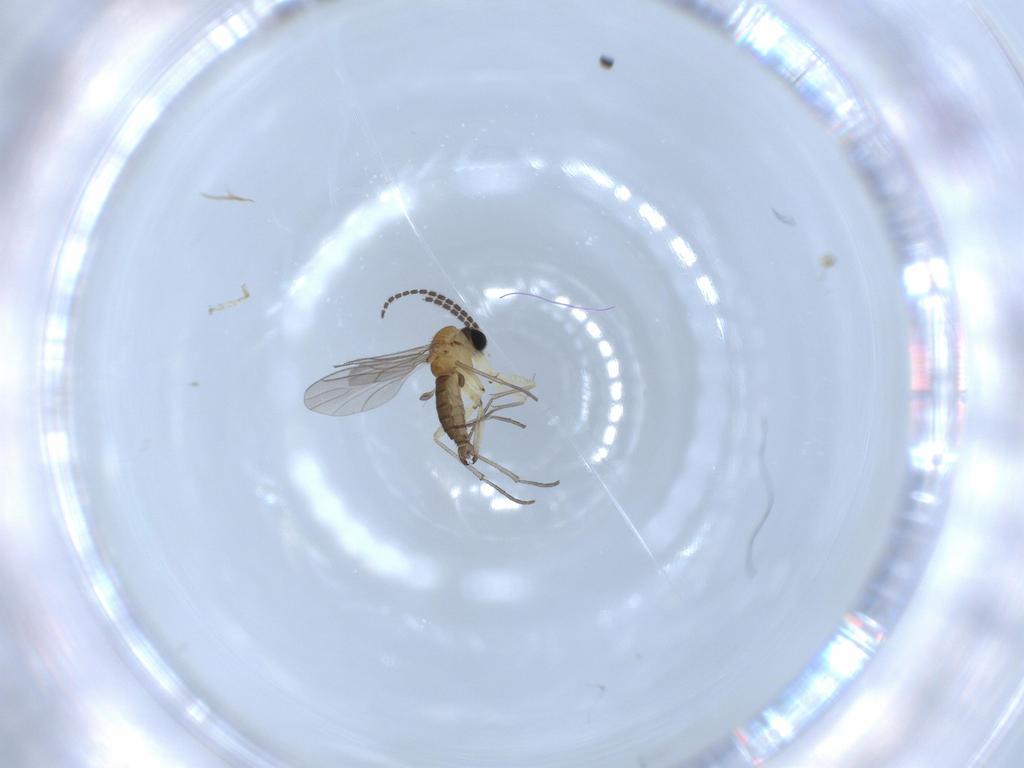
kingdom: Animalia
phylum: Arthropoda
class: Insecta
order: Diptera
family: Sciaridae
